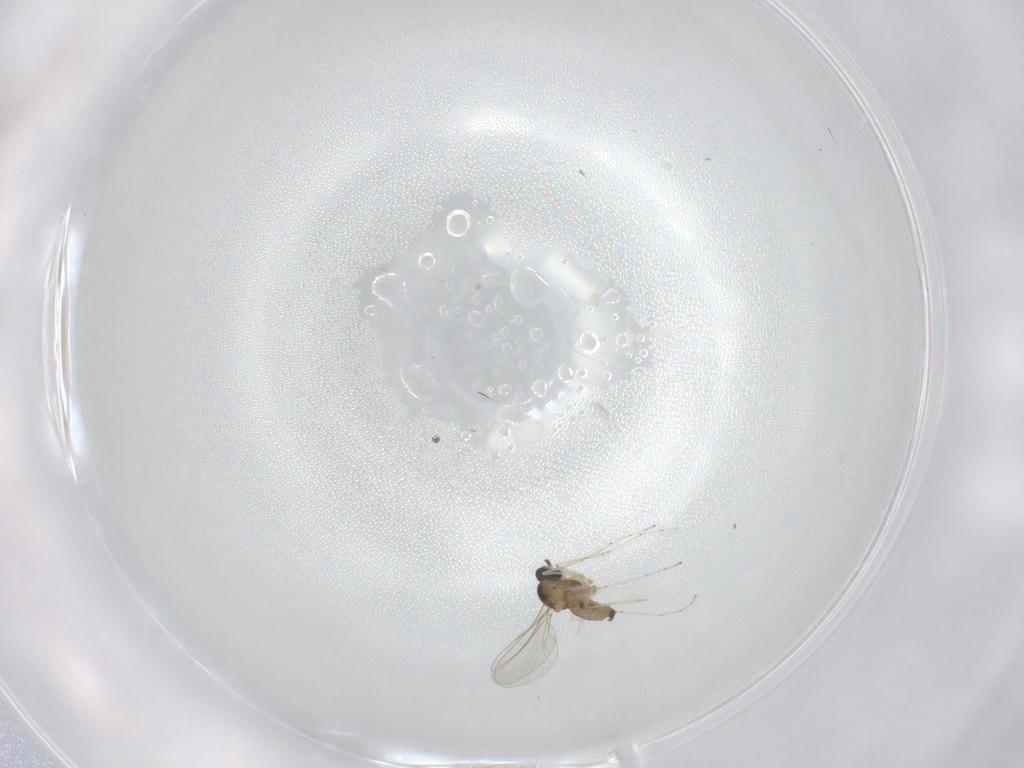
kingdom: Animalia
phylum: Arthropoda
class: Insecta
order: Diptera
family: Cecidomyiidae
